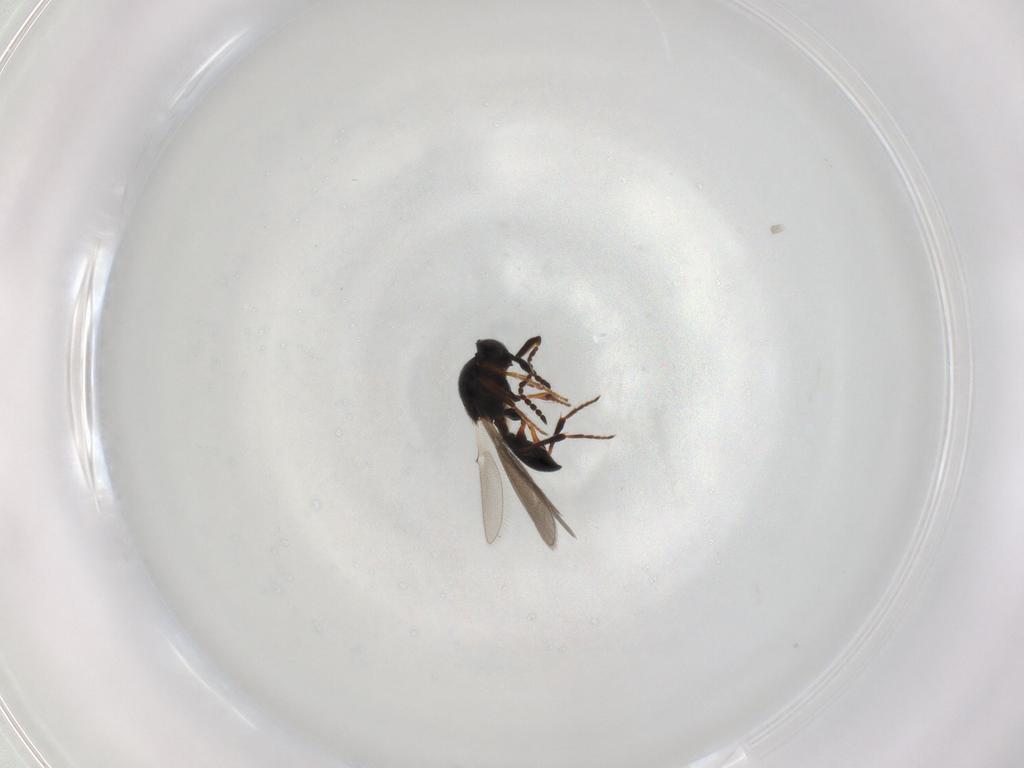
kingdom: Animalia
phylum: Arthropoda
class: Insecta
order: Hymenoptera
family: Platygastridae
